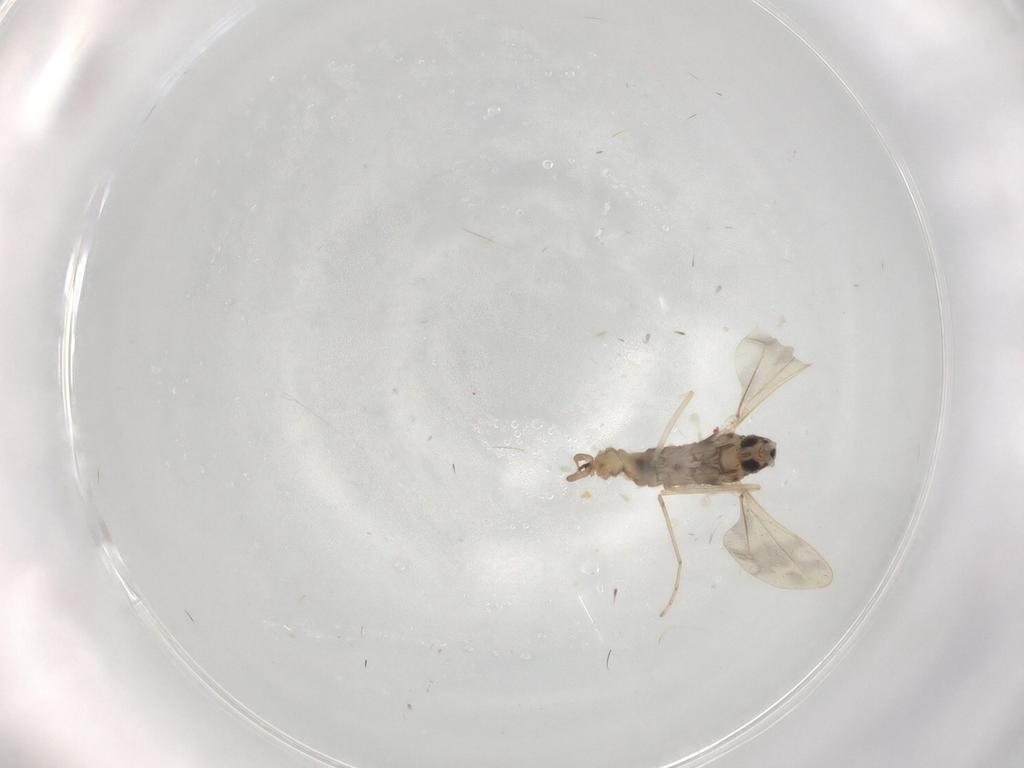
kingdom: Animalia
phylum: Arthropoda
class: Insecta
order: Diptera
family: Cecidomyiidae
